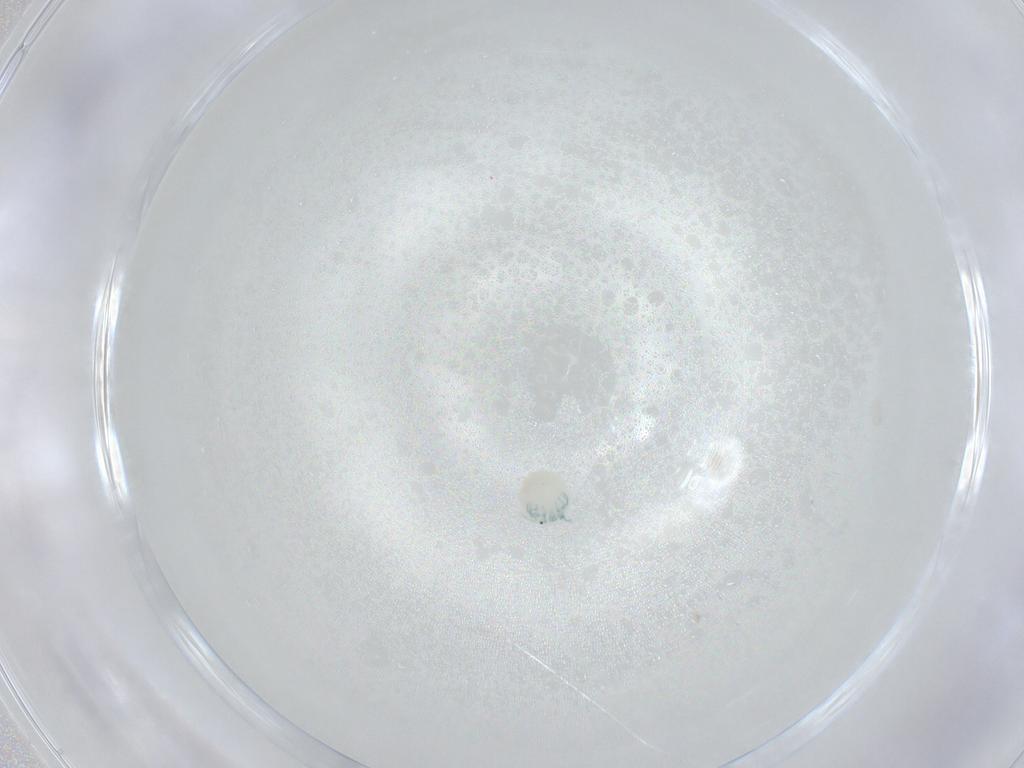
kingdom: Animalia
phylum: Arthropoda
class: Arachnida
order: Trombidiformes
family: Arrenuridae
